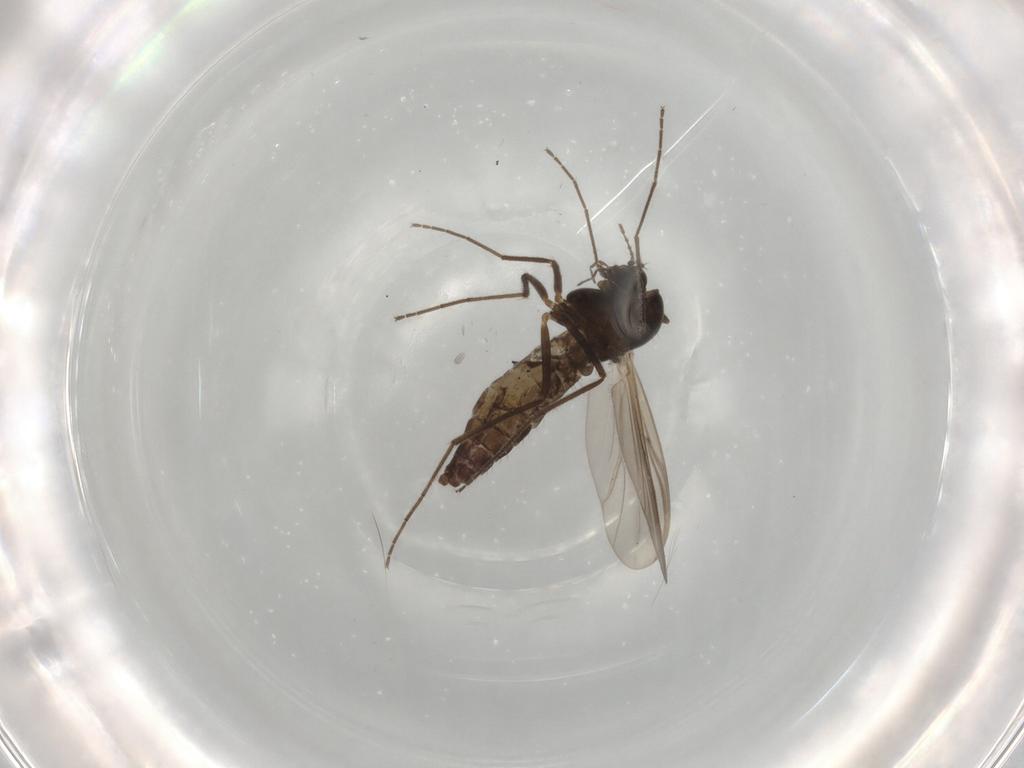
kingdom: Animalia
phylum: Arthropoda
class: Insecta
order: Diptera
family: Chironomidae
